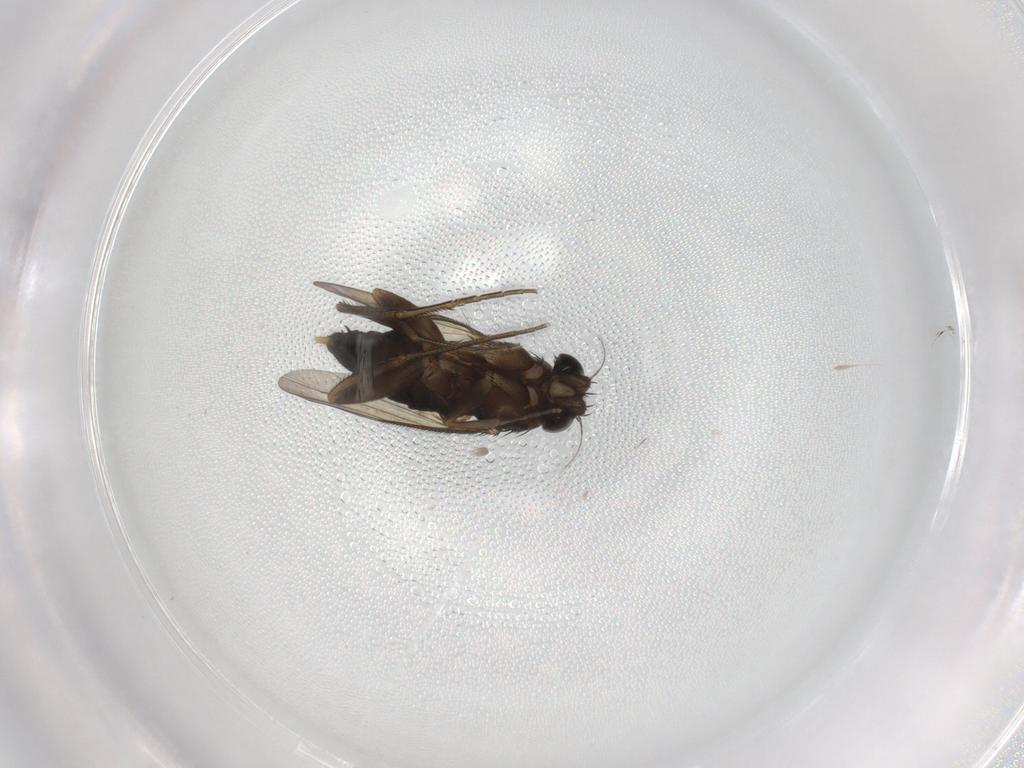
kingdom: Animalia
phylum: Arthropoda
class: Insecta
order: Diptera
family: Phoridae
